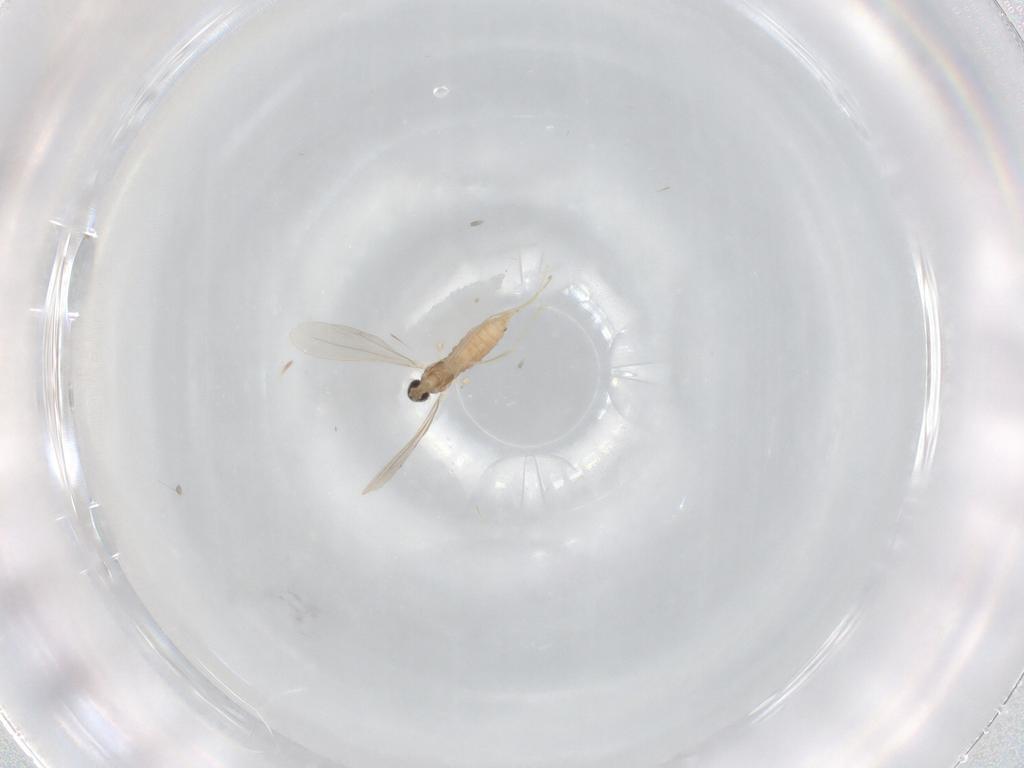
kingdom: Animalia
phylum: Arthropoda
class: Insecta
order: Diptera
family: Cecidomyiidae
